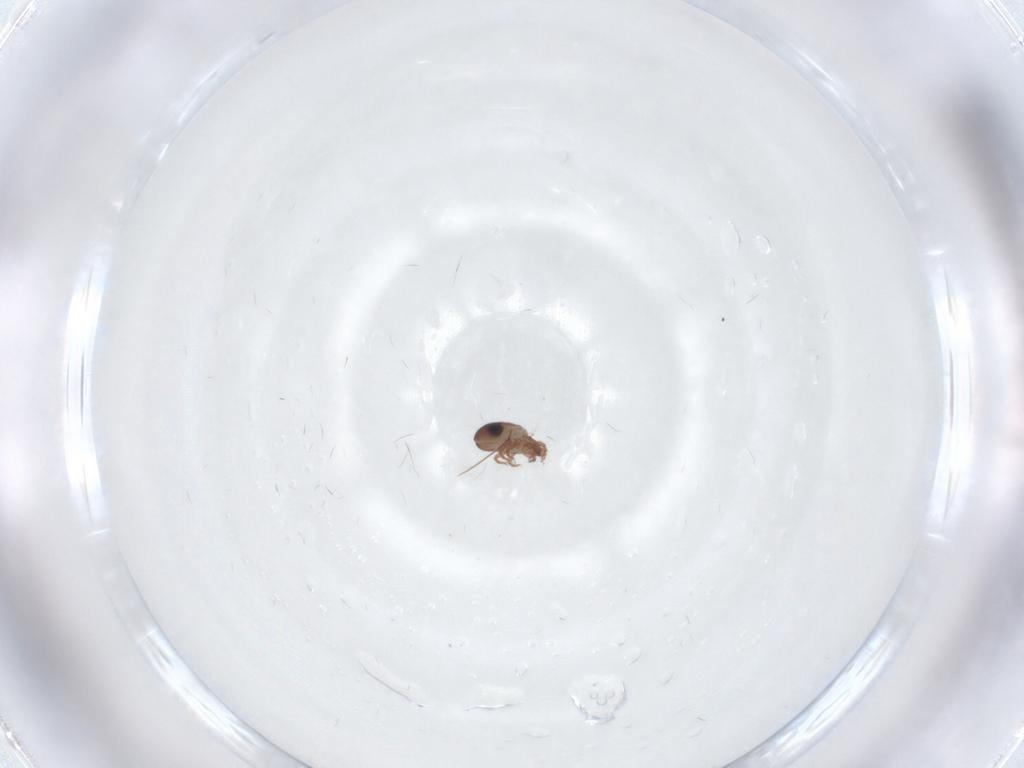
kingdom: Animalia
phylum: Arthropoda
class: Arachnida
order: Sarcoptiformes
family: Ceratozetidae
